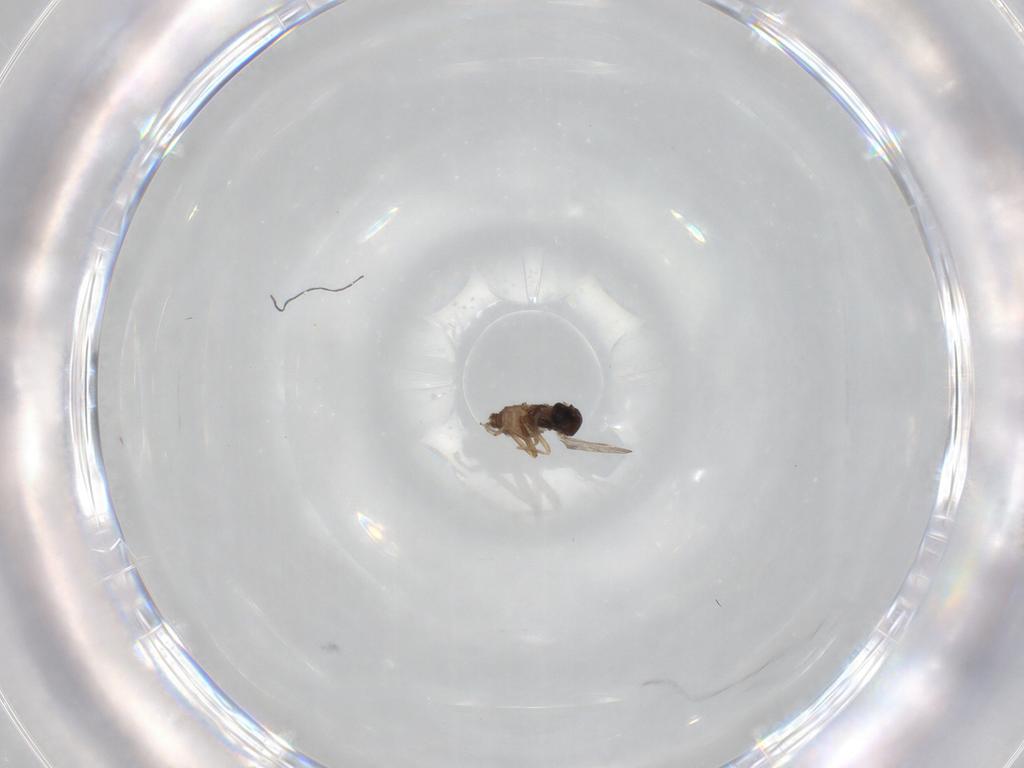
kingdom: Animalia
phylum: Arthropoda
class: Insecta
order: Diptera
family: Ceratopogonidae
